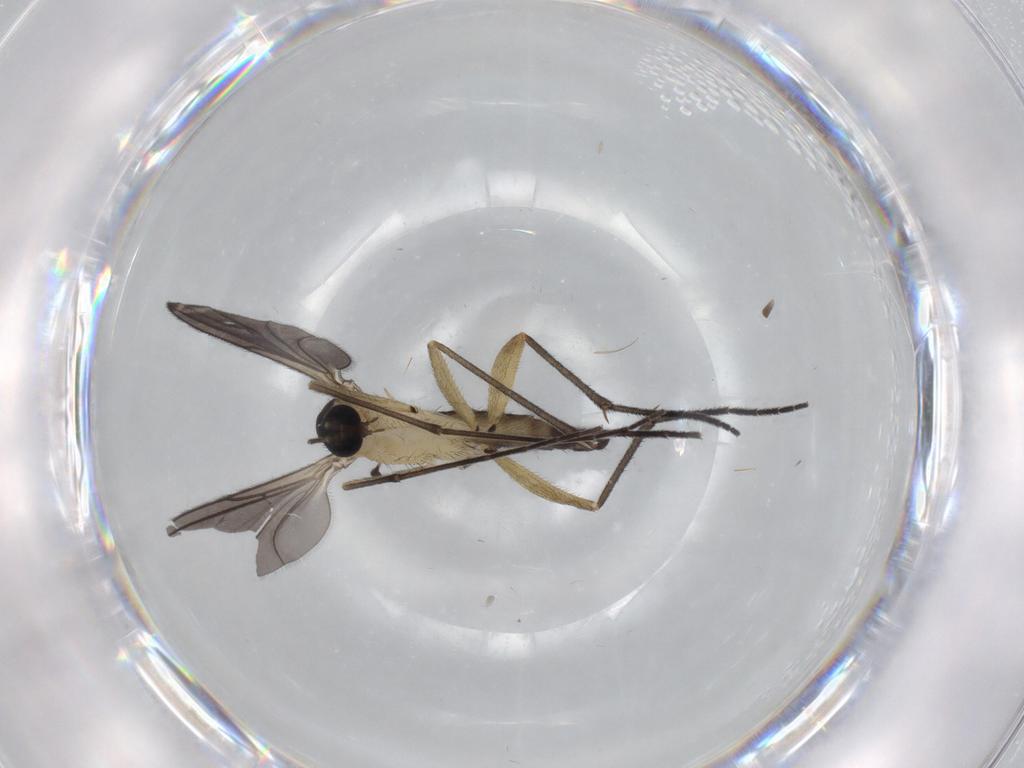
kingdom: Animalia
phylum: Arthropoda
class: Insecta
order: Diptera
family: Sciaridae
